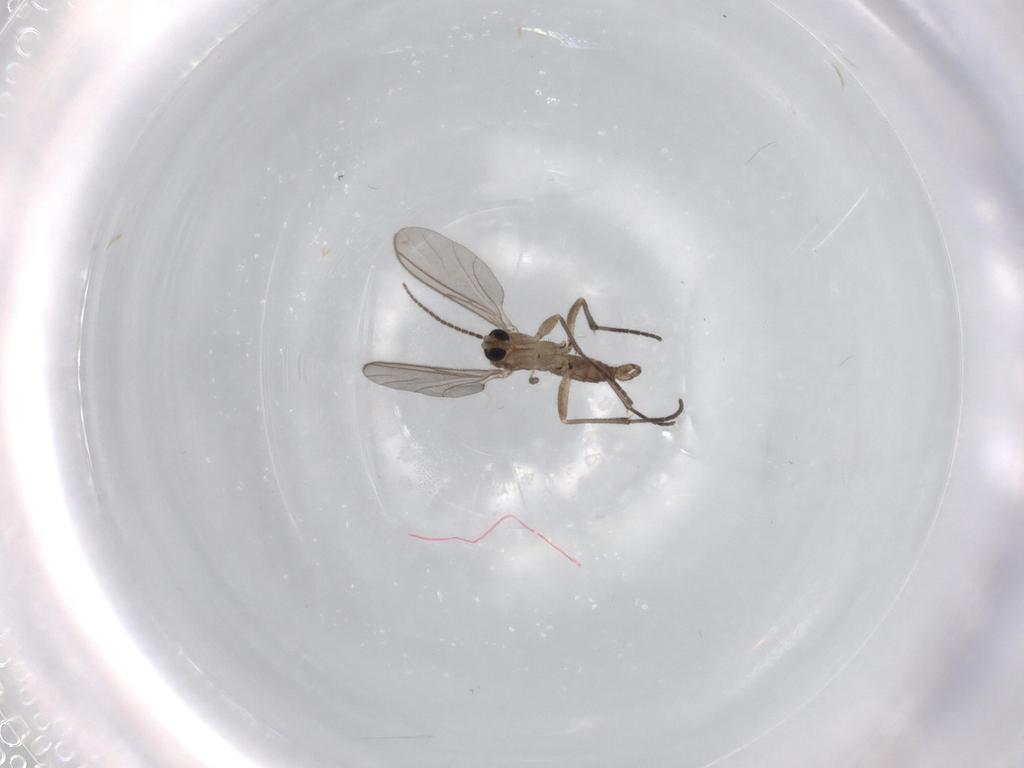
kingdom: Animalia
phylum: Arthropoda
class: Insecta
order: Diptera
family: Sciaridae
